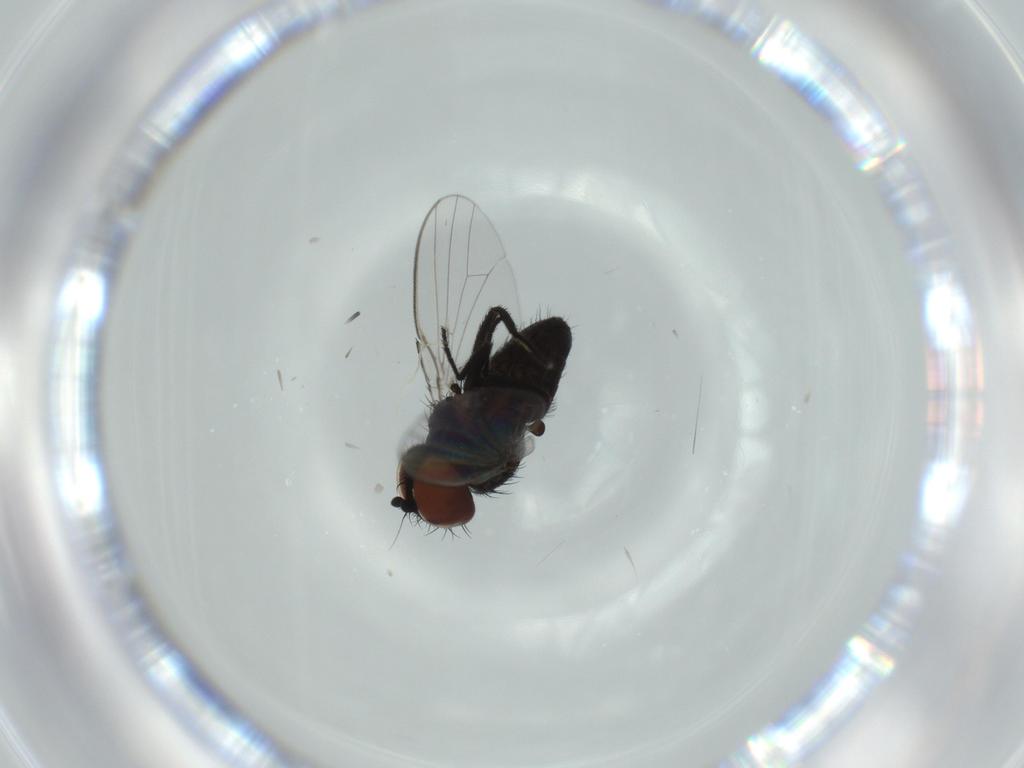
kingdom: Animalia
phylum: Arthropoda
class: Insecta
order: Diptera
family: Milichiidae
